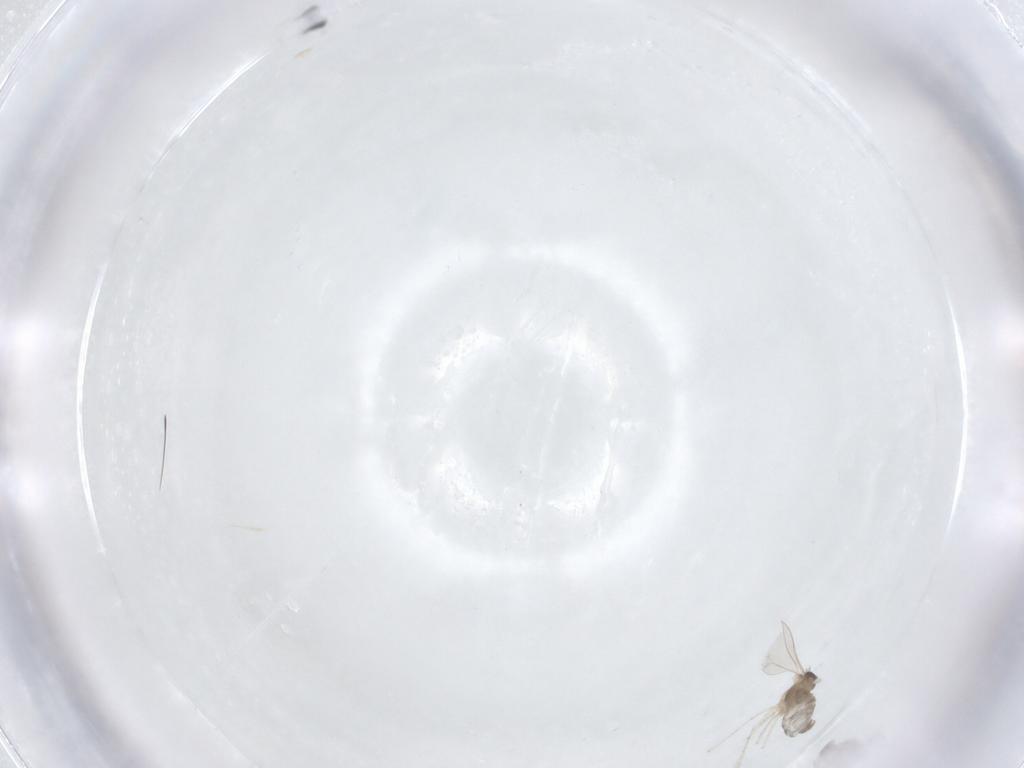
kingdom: Animalia
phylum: Arthropoda
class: Insecta
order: Diptera
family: Cecidomyiidae
